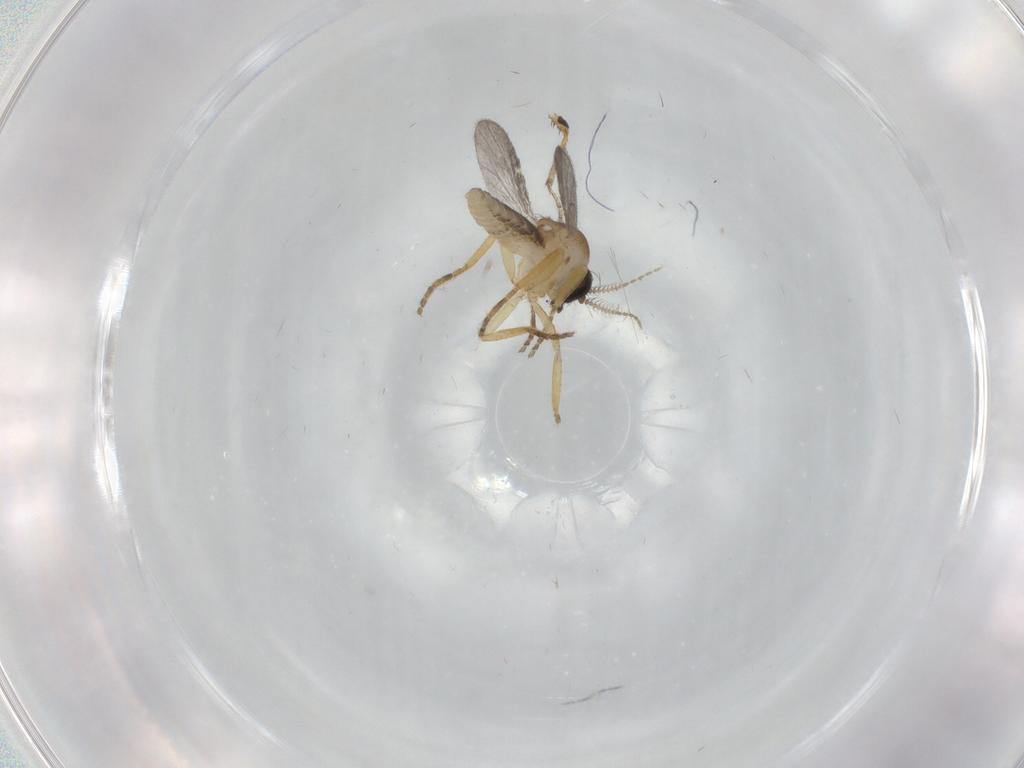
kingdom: Animalia
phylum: Arthropoda
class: Insecta
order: Diptera
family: Ceratopogonidae
